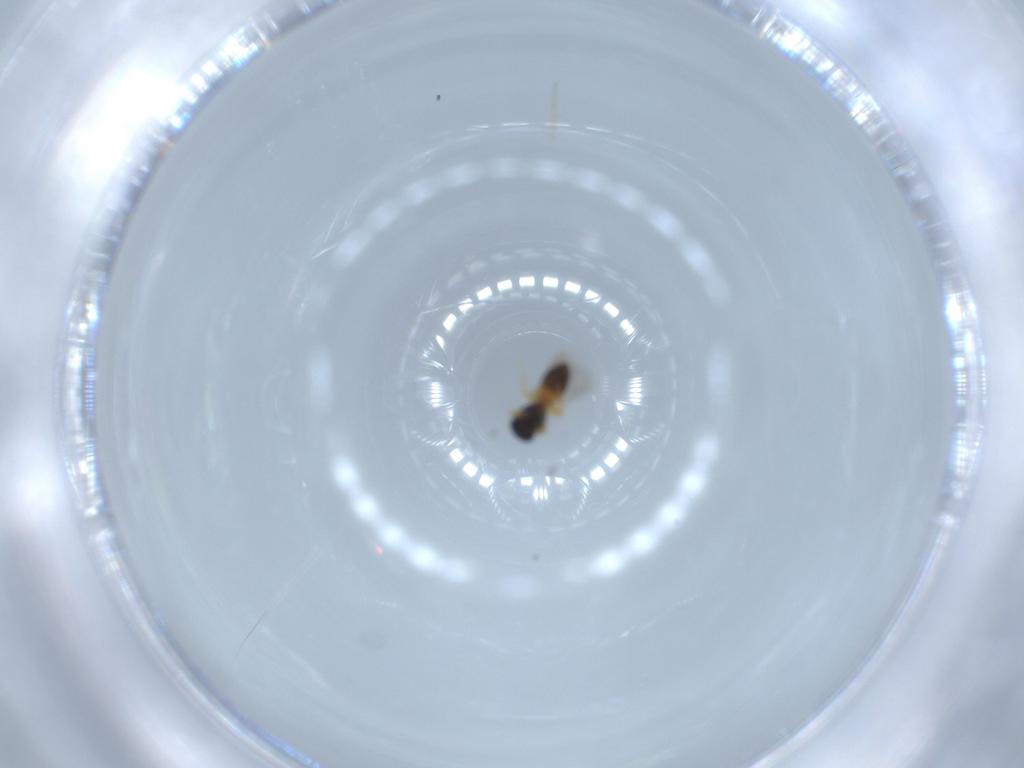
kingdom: Animalia
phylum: Arthropoda
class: Insecta
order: Hymenoptera
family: Platygastridae
